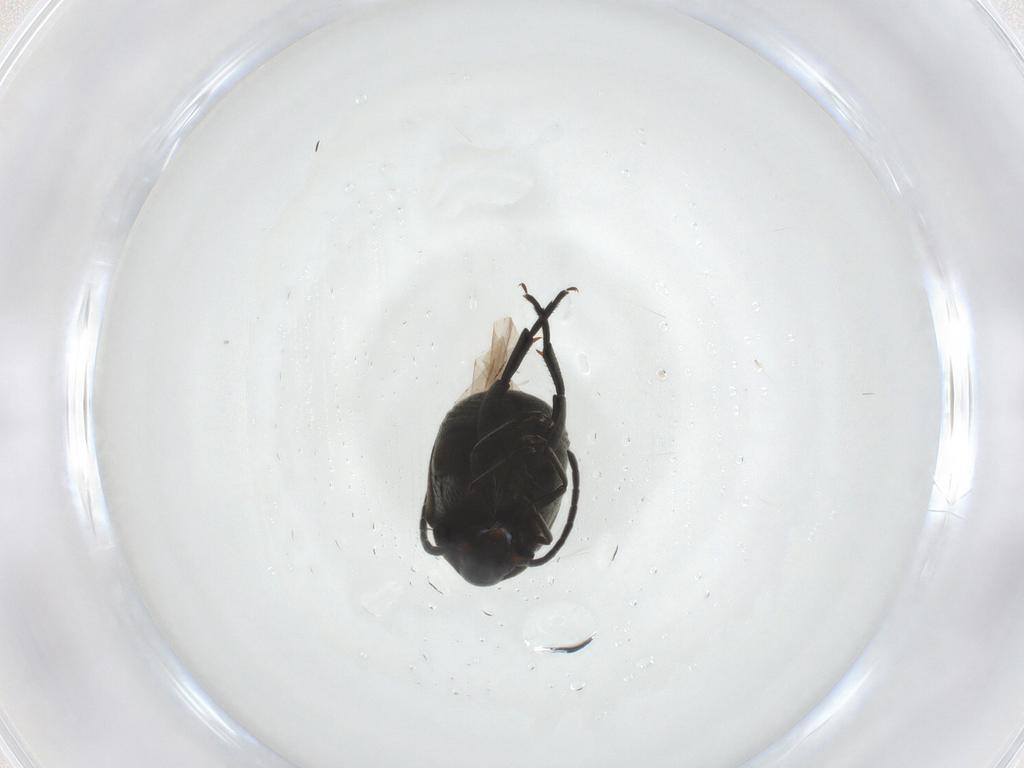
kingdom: Animalia
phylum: Arthropoda
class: Insecta
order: Coleoptera
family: Chrysomelidae
